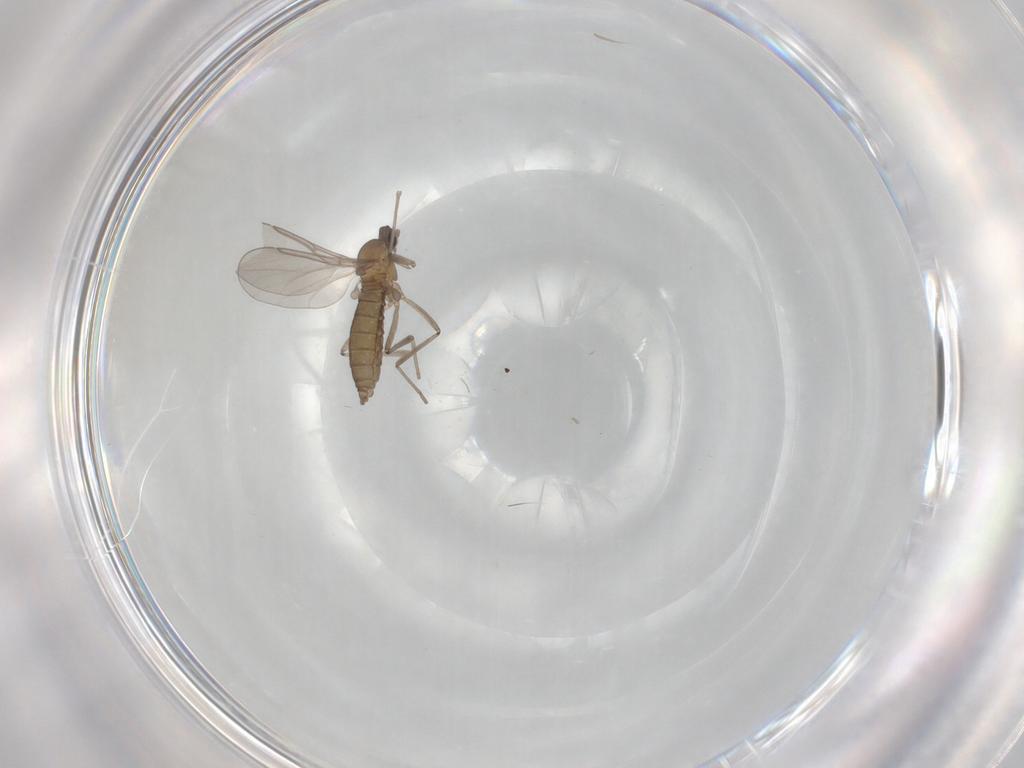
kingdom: Animalia
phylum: Arthropoda
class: Insecta
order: Diptera
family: Cecidomyiidae
